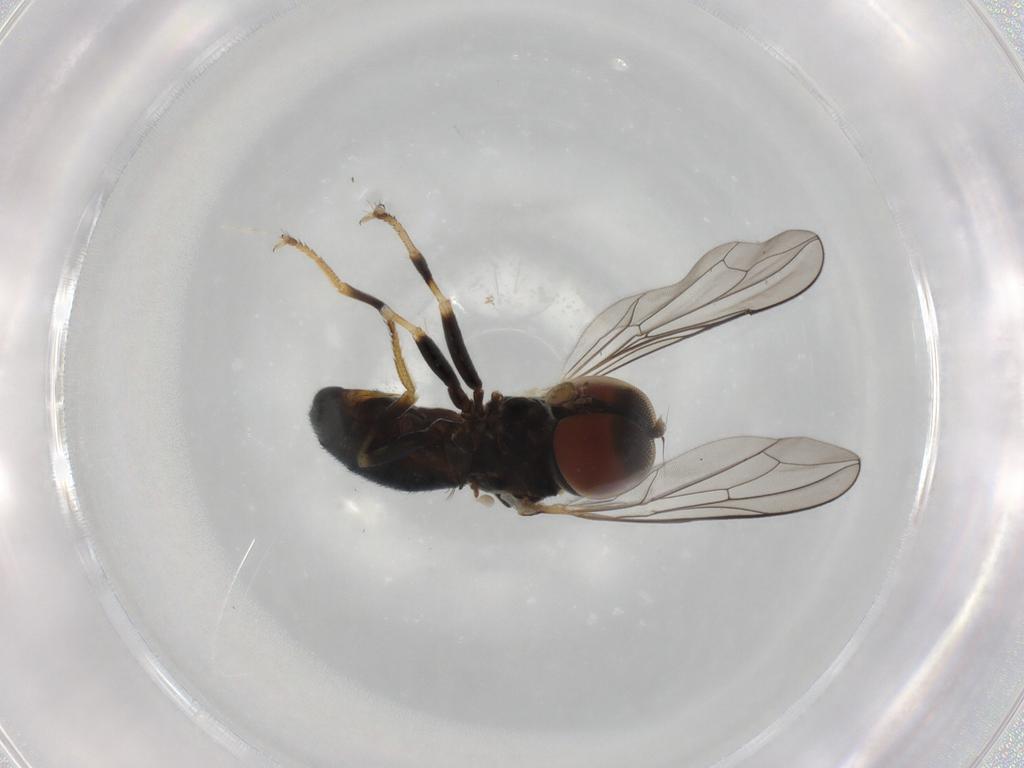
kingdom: Animalia
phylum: Arthropoda
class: Insecta
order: Diptera
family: Pipunculidae
